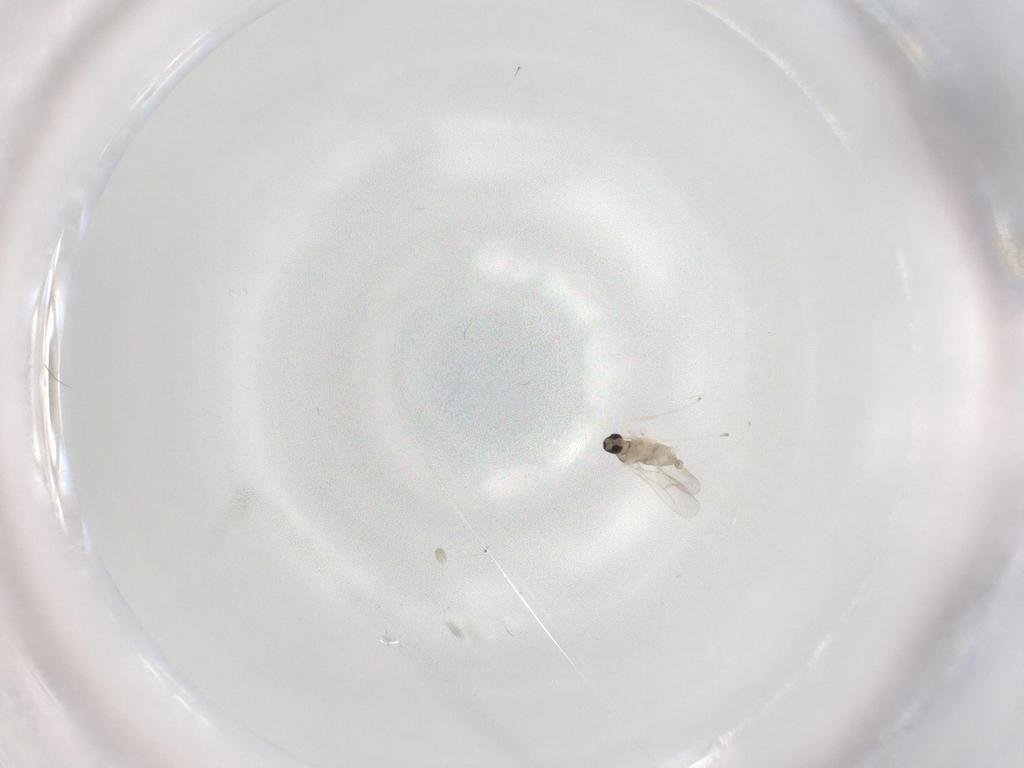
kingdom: Animalia
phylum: Arthropoda
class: Insecta
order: Diptera
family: Cecidomyiidae
